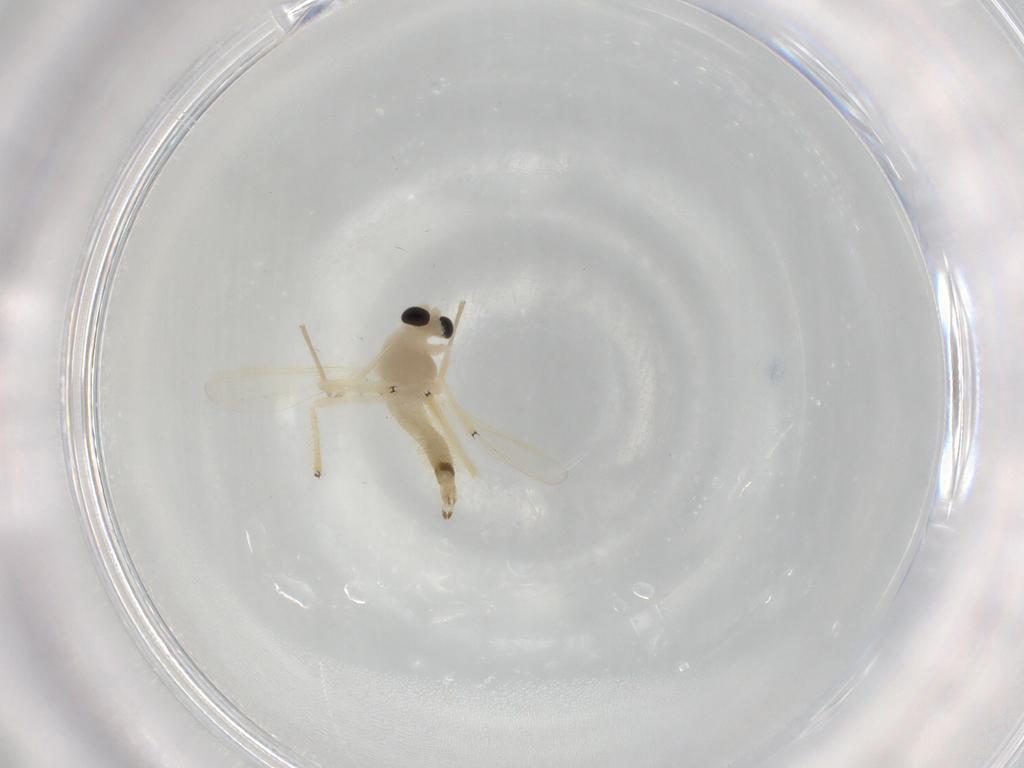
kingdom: Animalia
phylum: Arthropoda
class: Insecta
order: Diptera
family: Chironomidae
